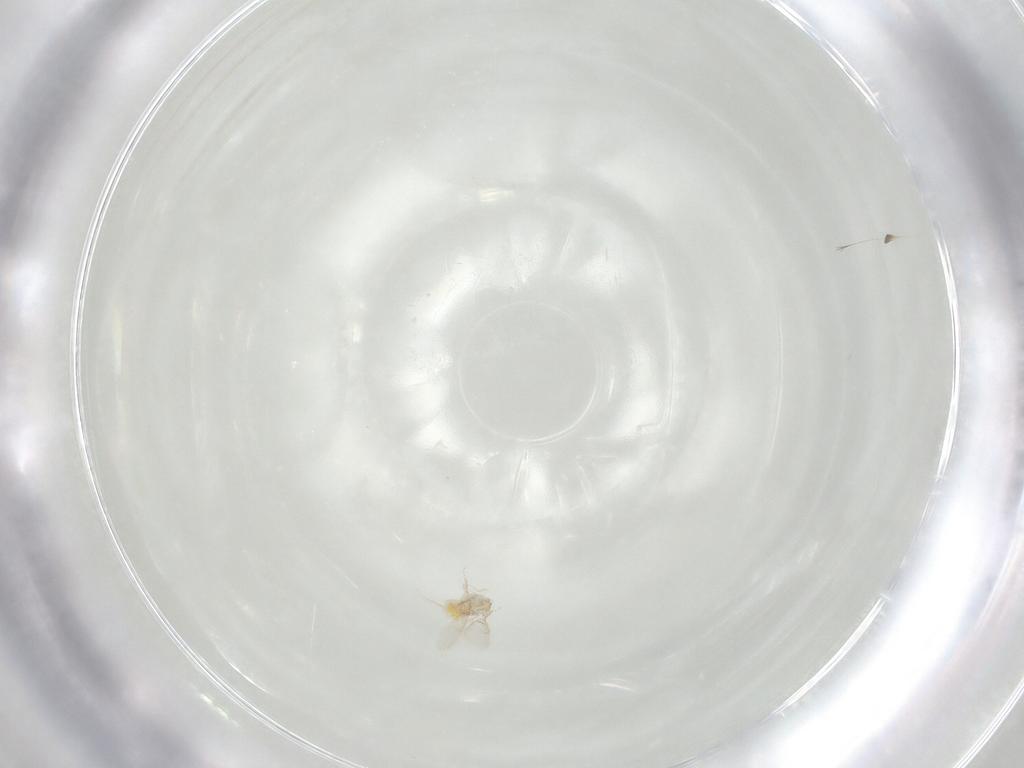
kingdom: Animalia
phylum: Arthropoda
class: Insecta
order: Hymenoptera
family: Aphelinidae
